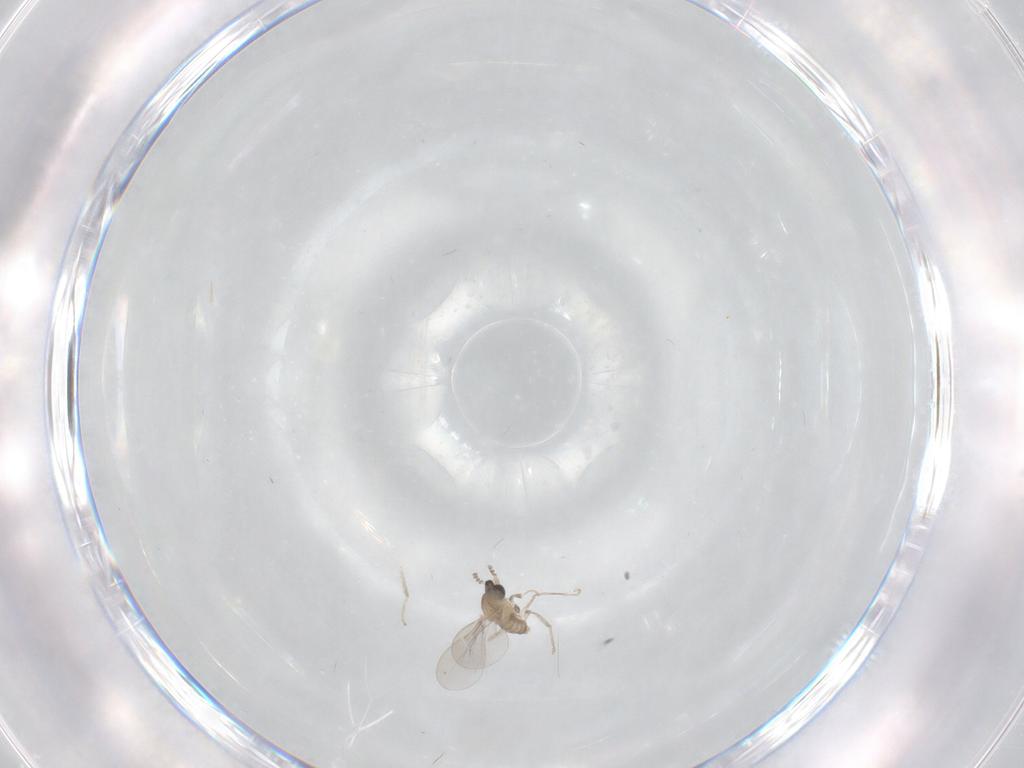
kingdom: Animalia
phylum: Arthropoda
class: Insecta
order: Diptera
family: Cecidomyiidae
